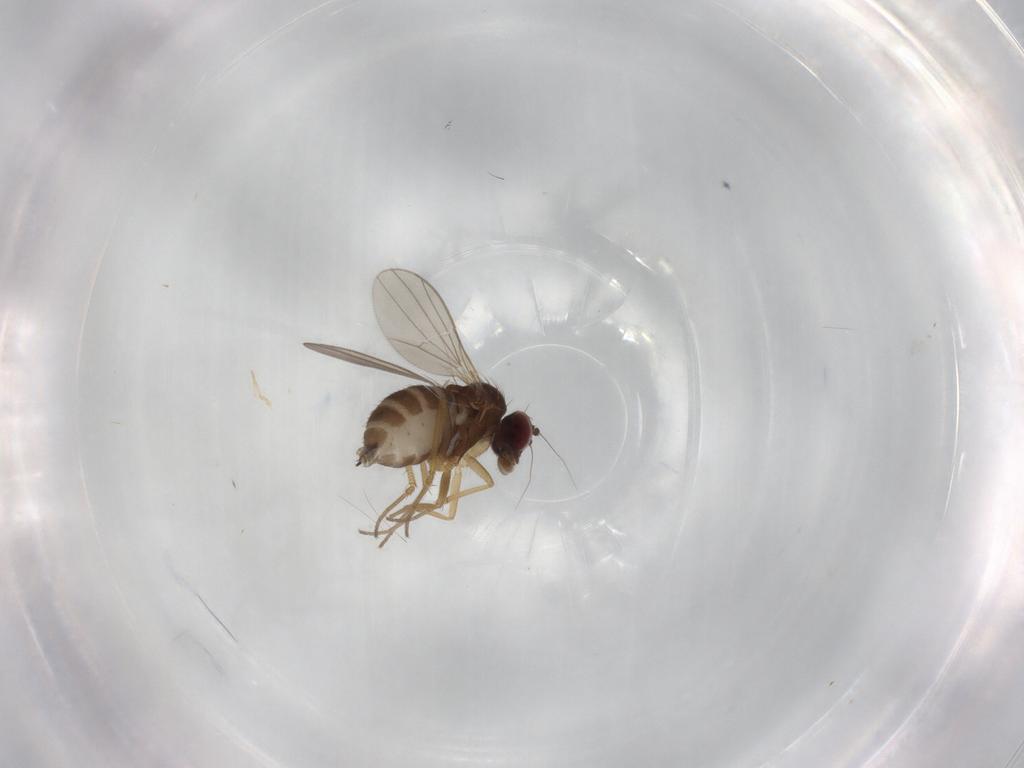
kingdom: Animalia
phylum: Arthropoda
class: Insecta
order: Diptera
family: Dolichopodidae
